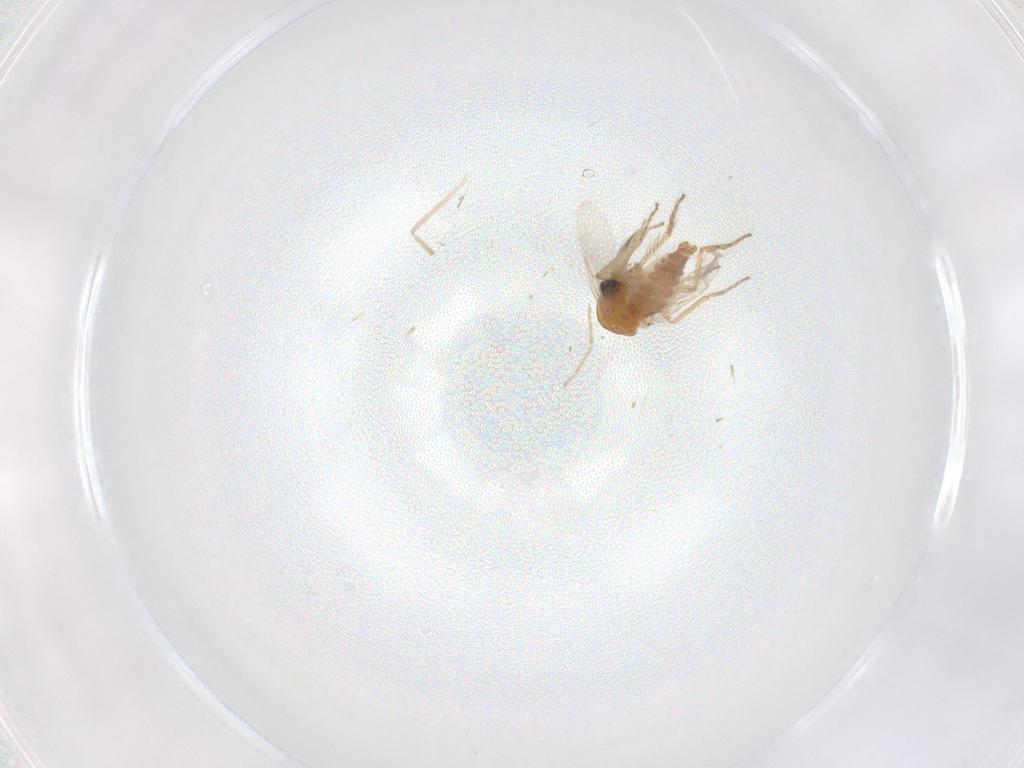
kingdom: Animalia
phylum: Arthropoda
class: Insecta
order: Diptera
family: Ceratopogonidae
